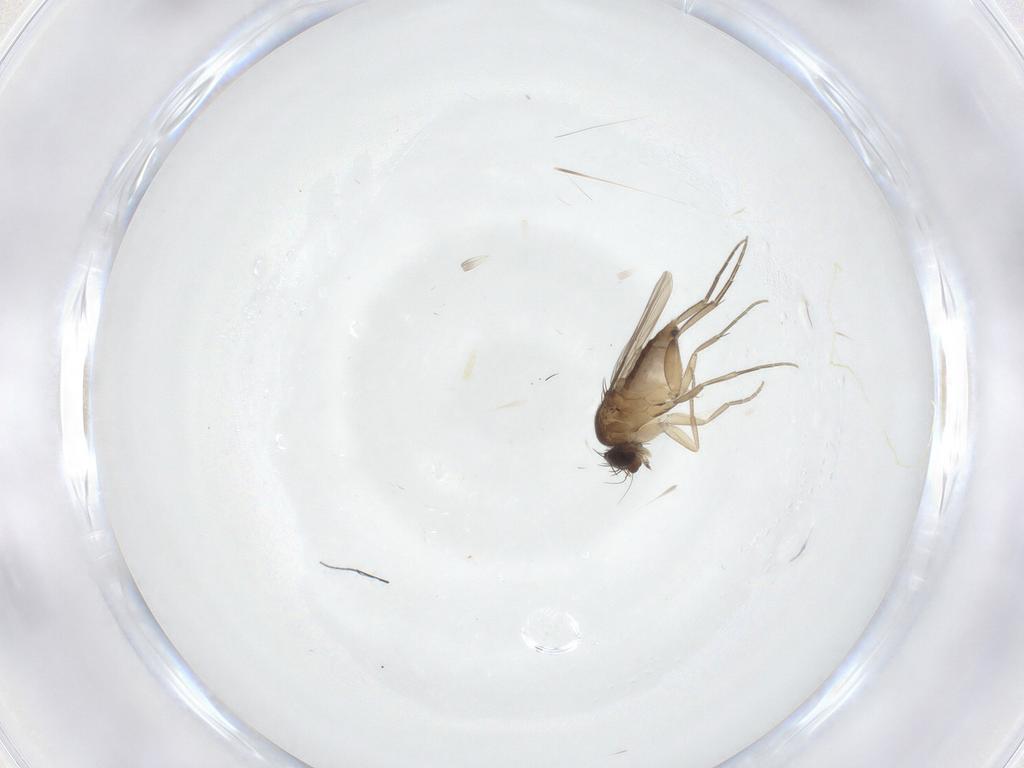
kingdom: Animalia
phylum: Arthropoda
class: Insecta
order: Diptera
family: Phoridae
